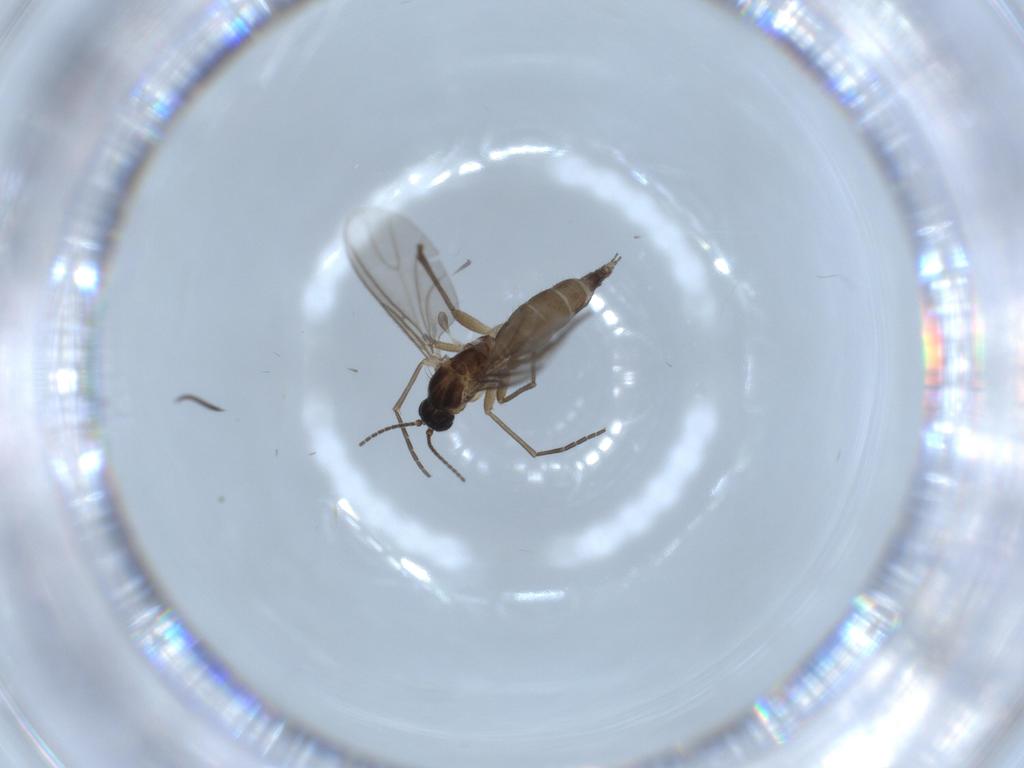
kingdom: Animalia
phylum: Arthropoda
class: Insecta
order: Diptera
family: Sciaridae
